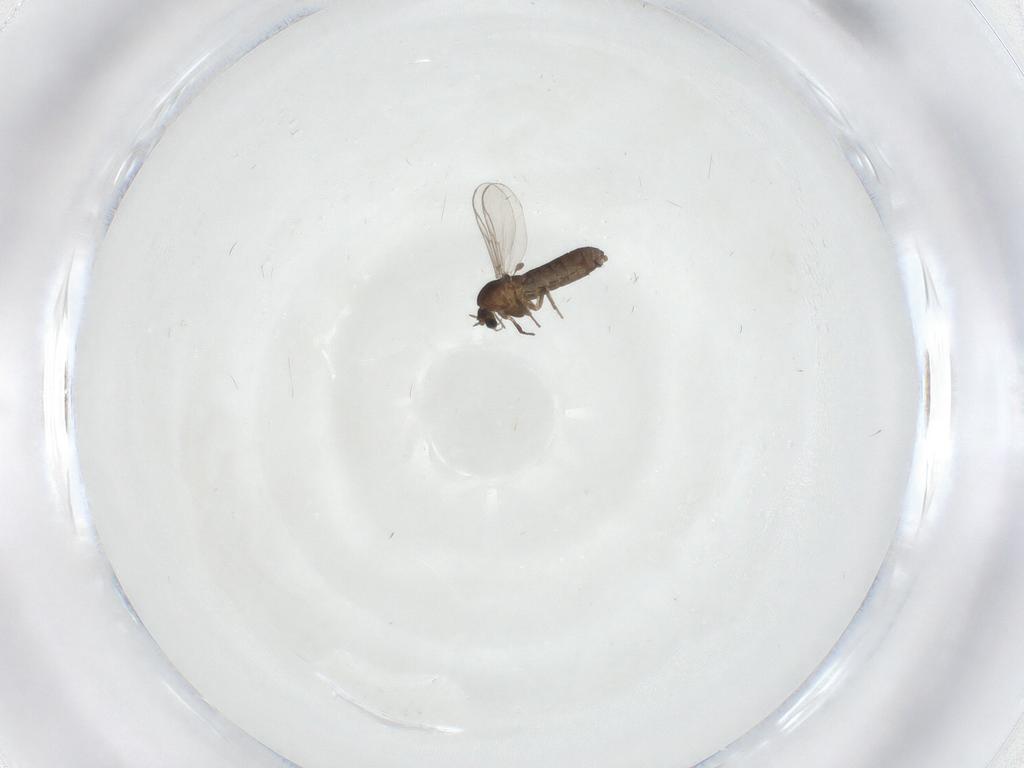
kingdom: Animalia
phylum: Arthropoda
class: Insecta
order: Diptera
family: Chironomidae
